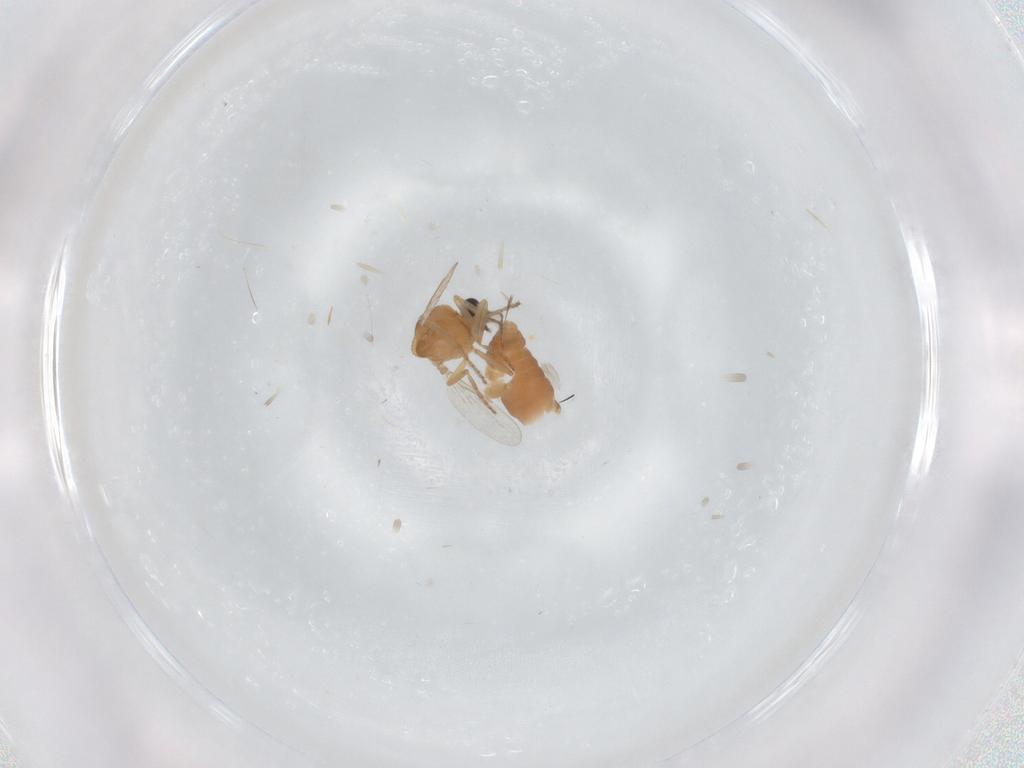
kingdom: Animalia
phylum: Arthropoda
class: Insecta
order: Diptera
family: Ceratopogonidae
